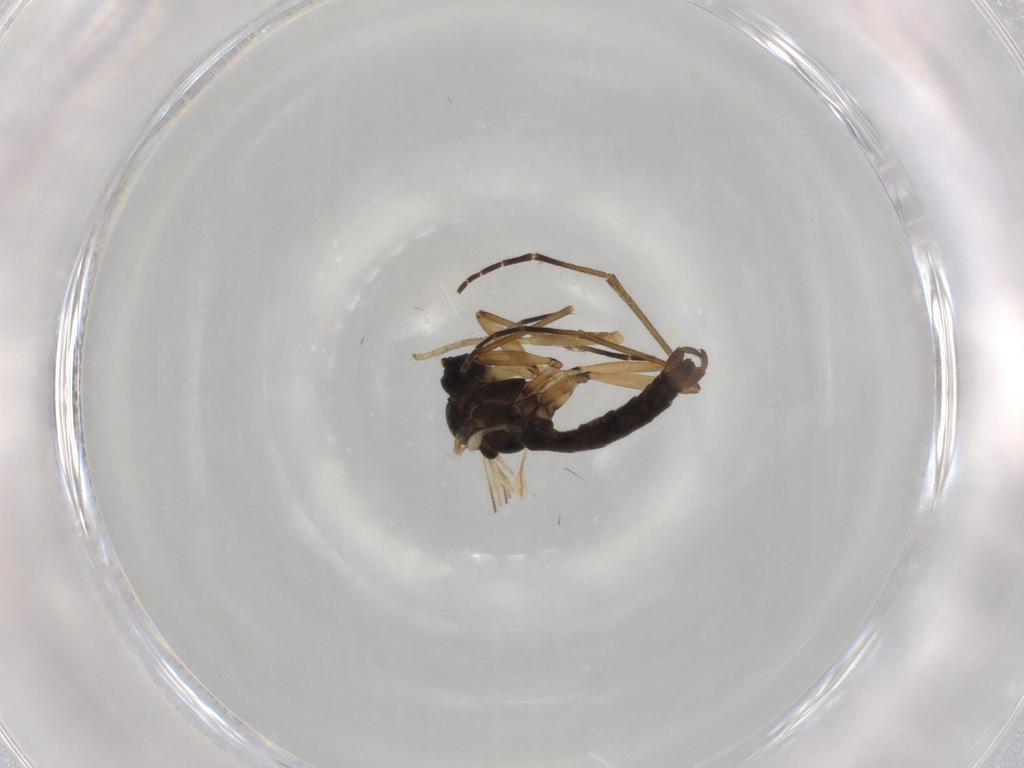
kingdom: Animalia
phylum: Arthropoda
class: Insecta
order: Diptera
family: Sciaridae
